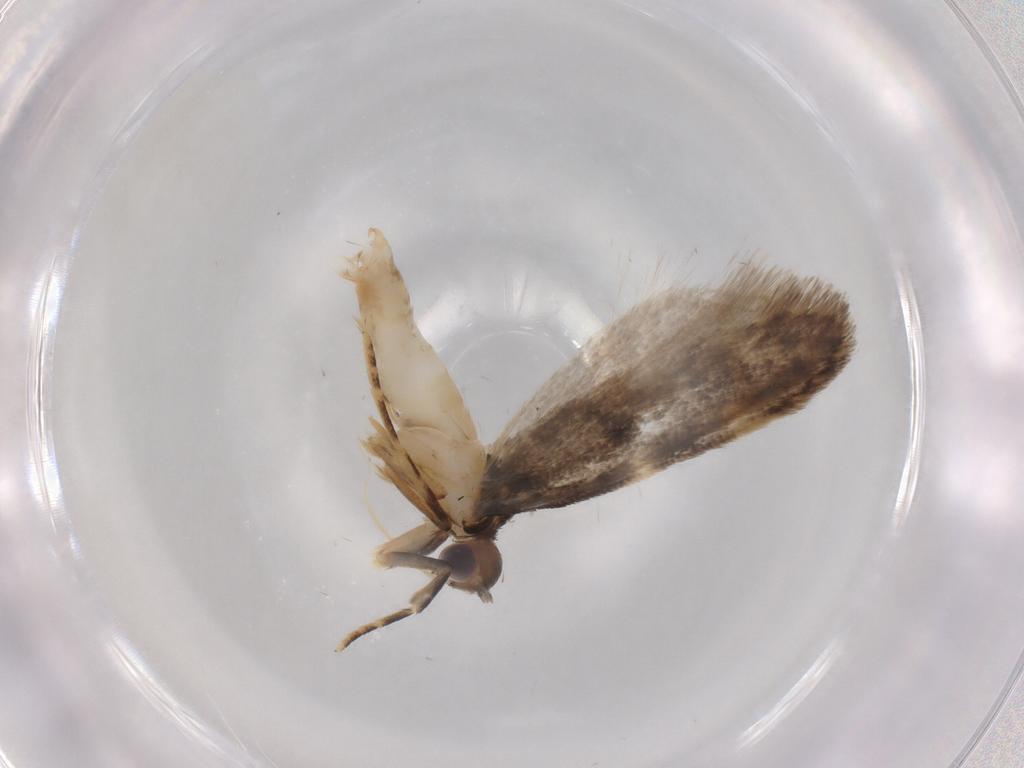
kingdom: Animalia
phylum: Arthropoda
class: Insecta
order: Lepidoptera
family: Autostichidae
